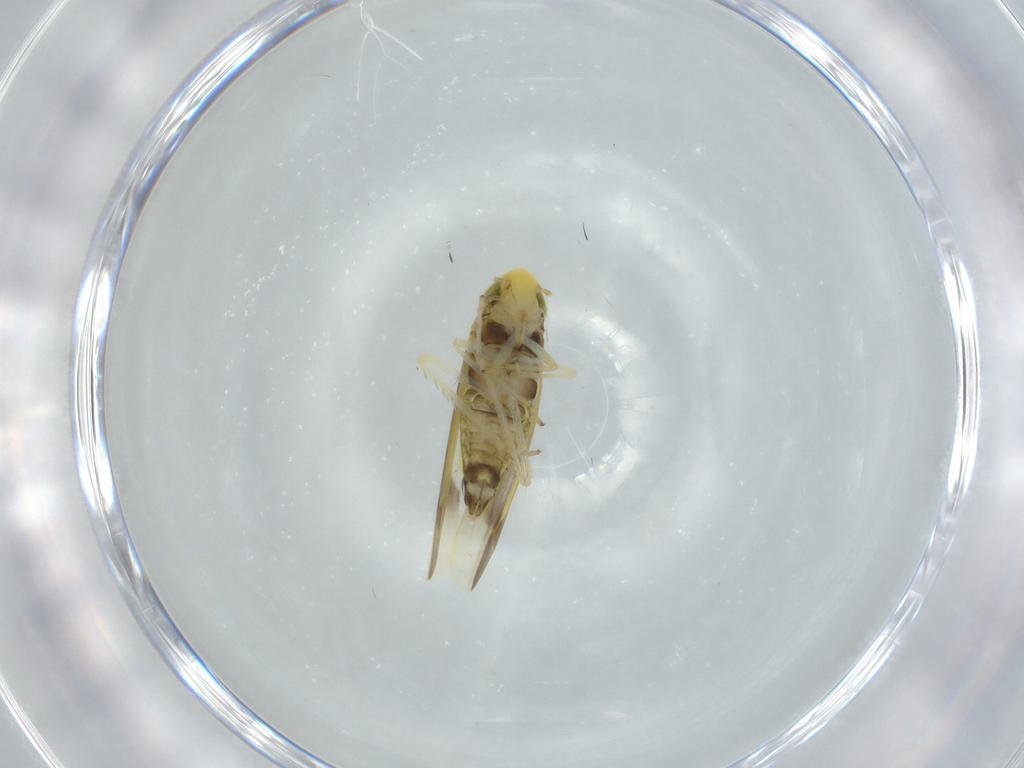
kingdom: Animalia
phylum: Arthropoda
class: Insecta
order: Hemiptera
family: Cicadellidae
